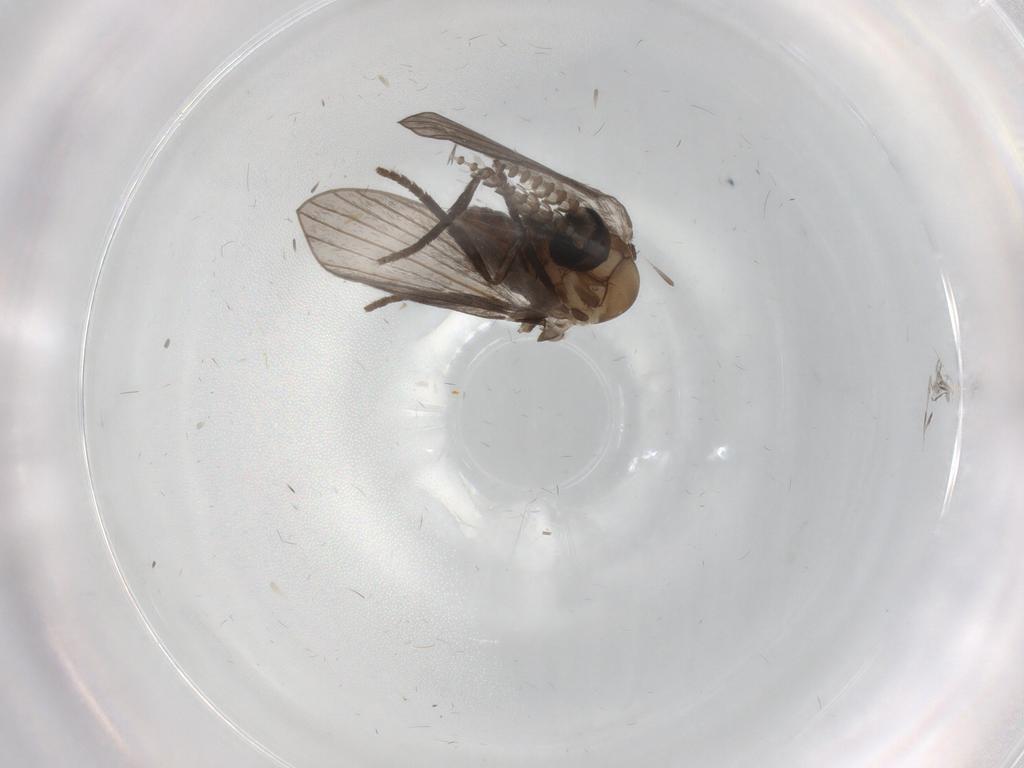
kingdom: Animalia
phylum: Arthropoda
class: Insecta
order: Diptera
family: Psychodidae
